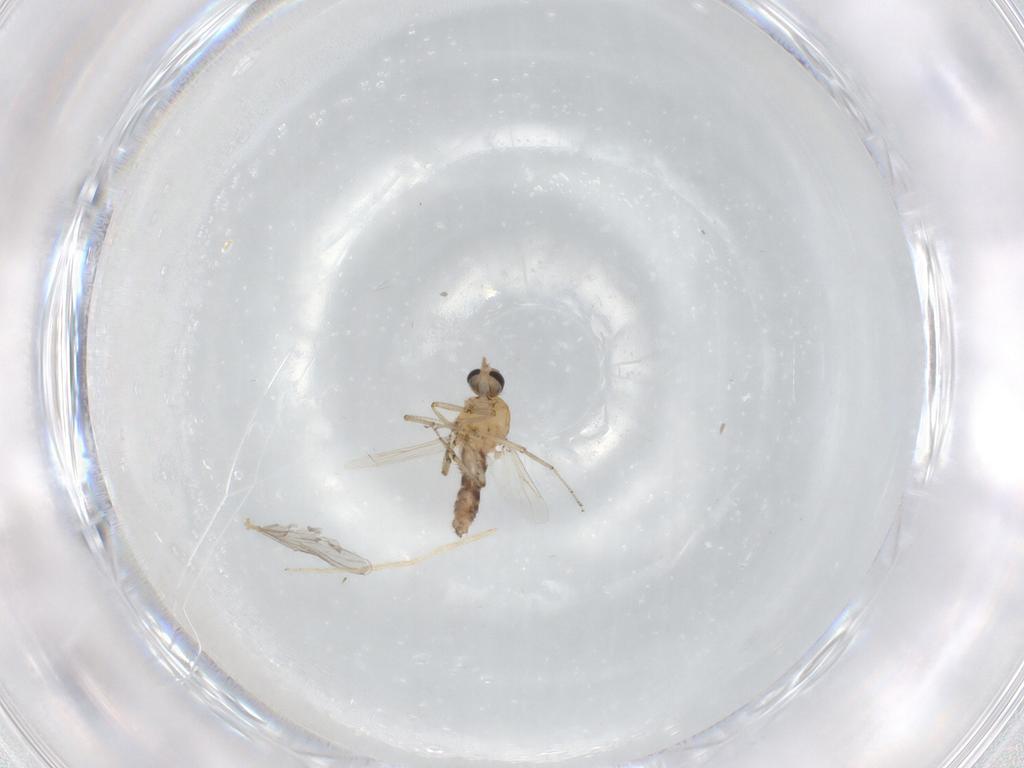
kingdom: Animalia
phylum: Arthropoda
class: Insecta
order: Diptera
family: Chironomidae
